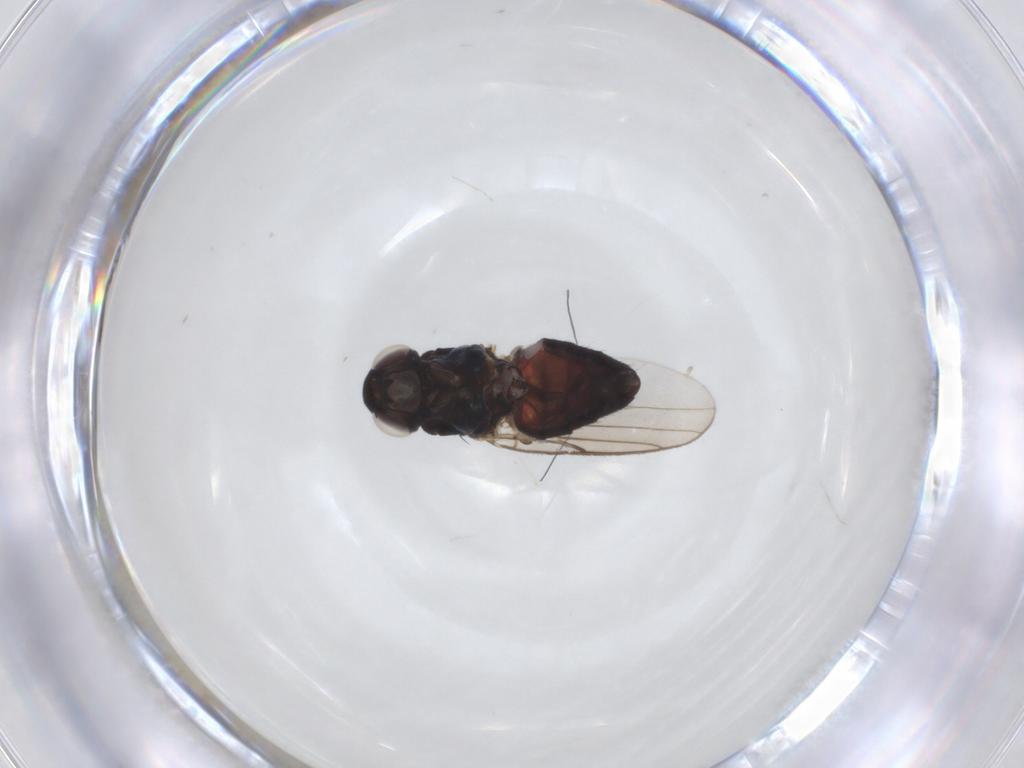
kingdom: Animalia
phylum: Arthropoda
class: Insecta
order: Diptera
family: Chloropidae
